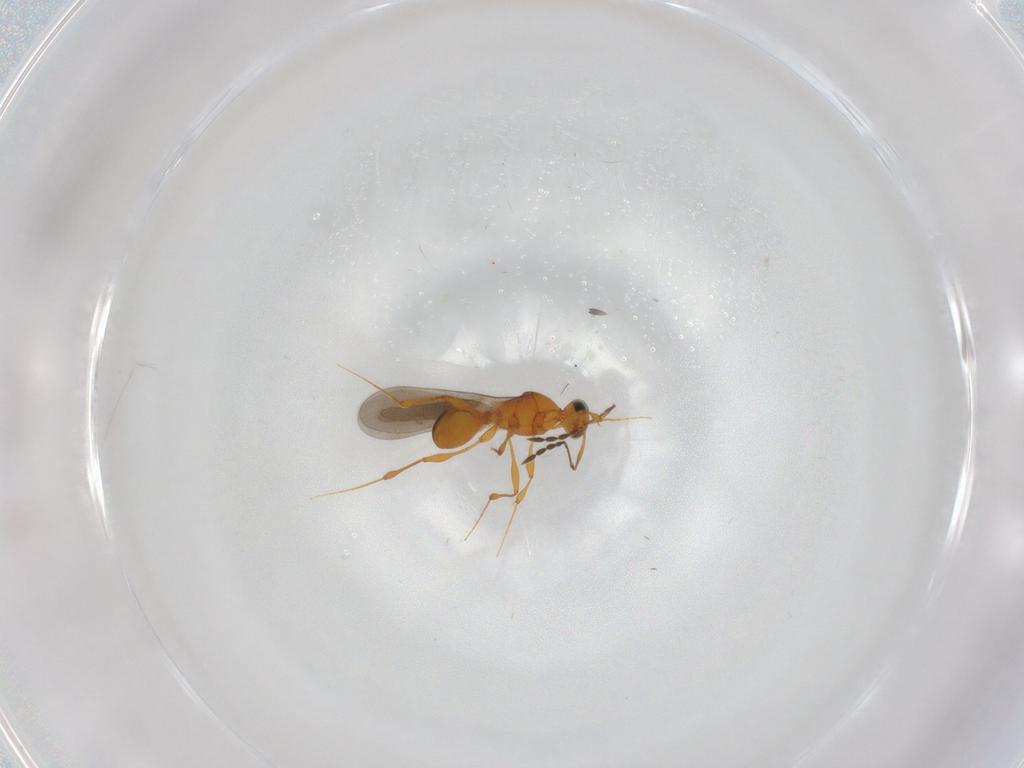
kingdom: Animalia
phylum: Arthropoda
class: Insecta
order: Hymenoptera
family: Platygastridae
